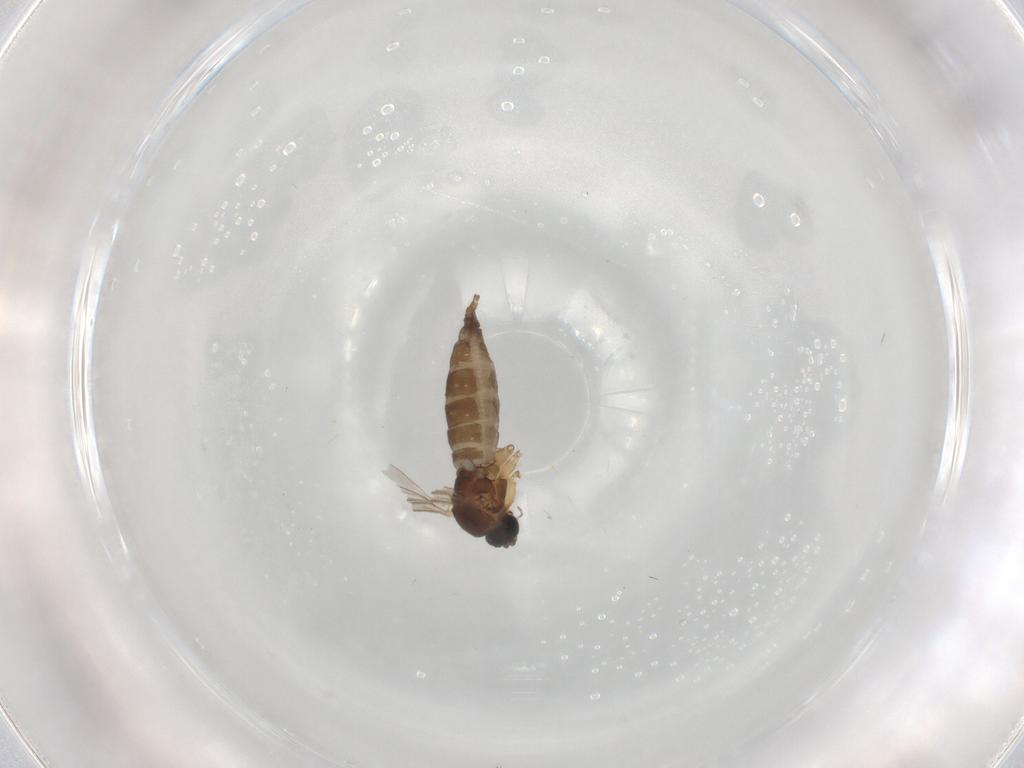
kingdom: Animalia
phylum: Arthropoda
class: Insecta
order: Diptera
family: Sciaridae
